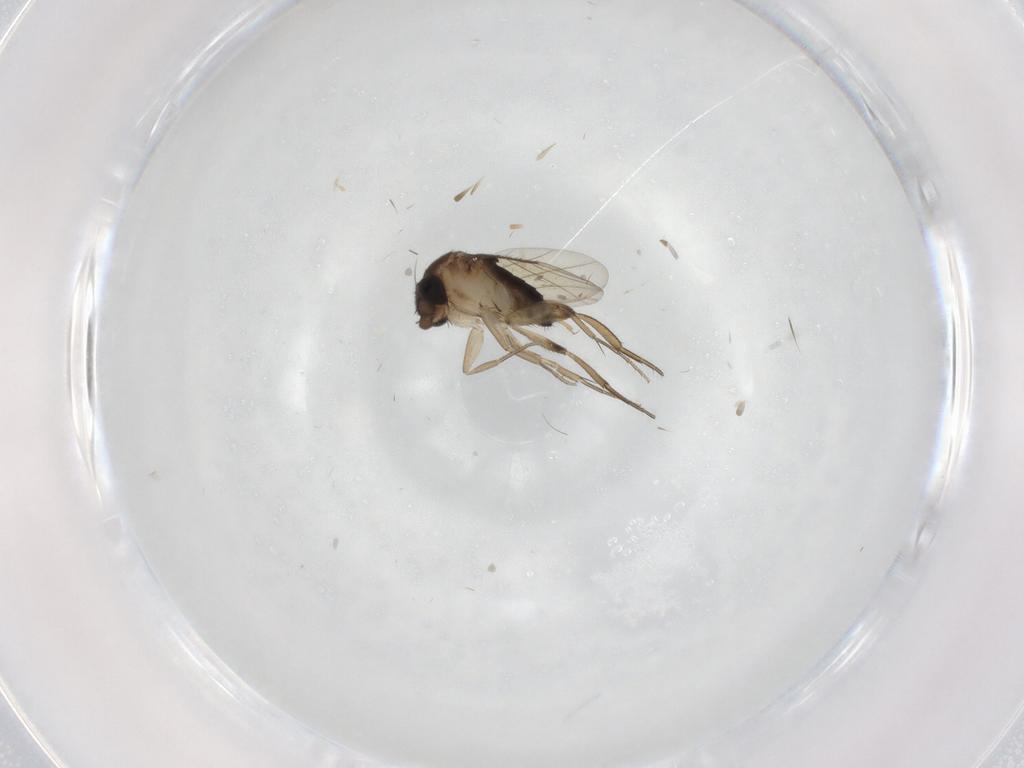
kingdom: Animalia
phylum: Arthropoda
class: Insecta
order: Diptera
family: Phoridae
